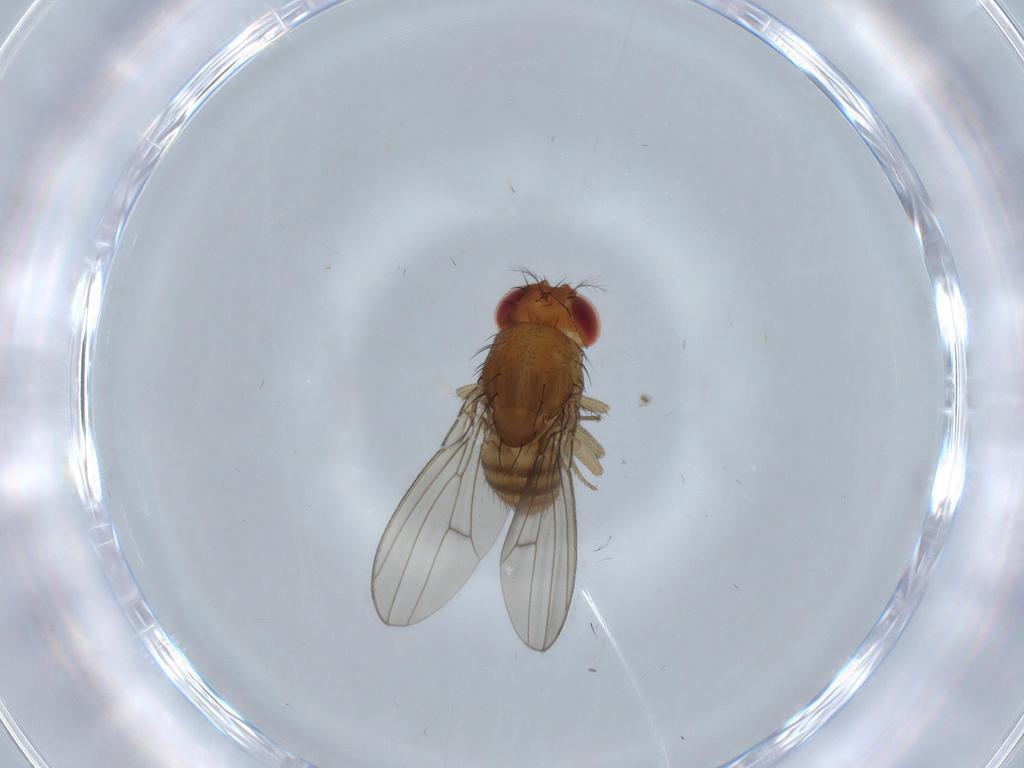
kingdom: Animalia
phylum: Arthropoda
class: Insecta
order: Diptera
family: Drosophilidae
